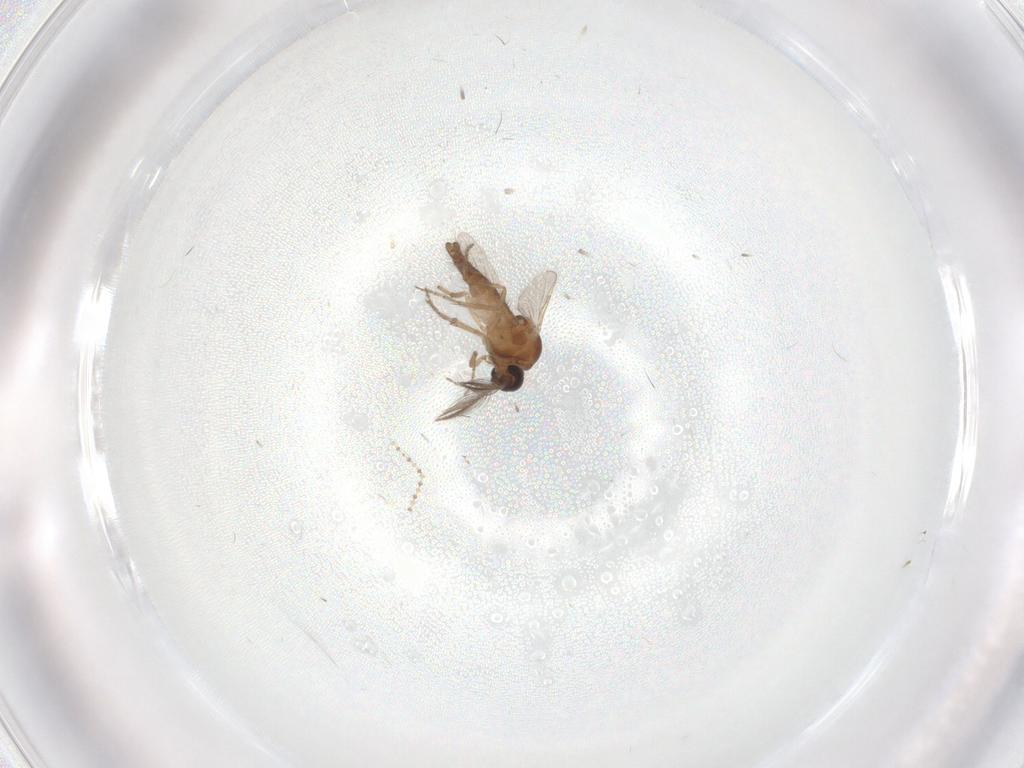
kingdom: Animalia
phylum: Arthropoda
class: Insecta
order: Diptera
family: Ceratopogonidae
